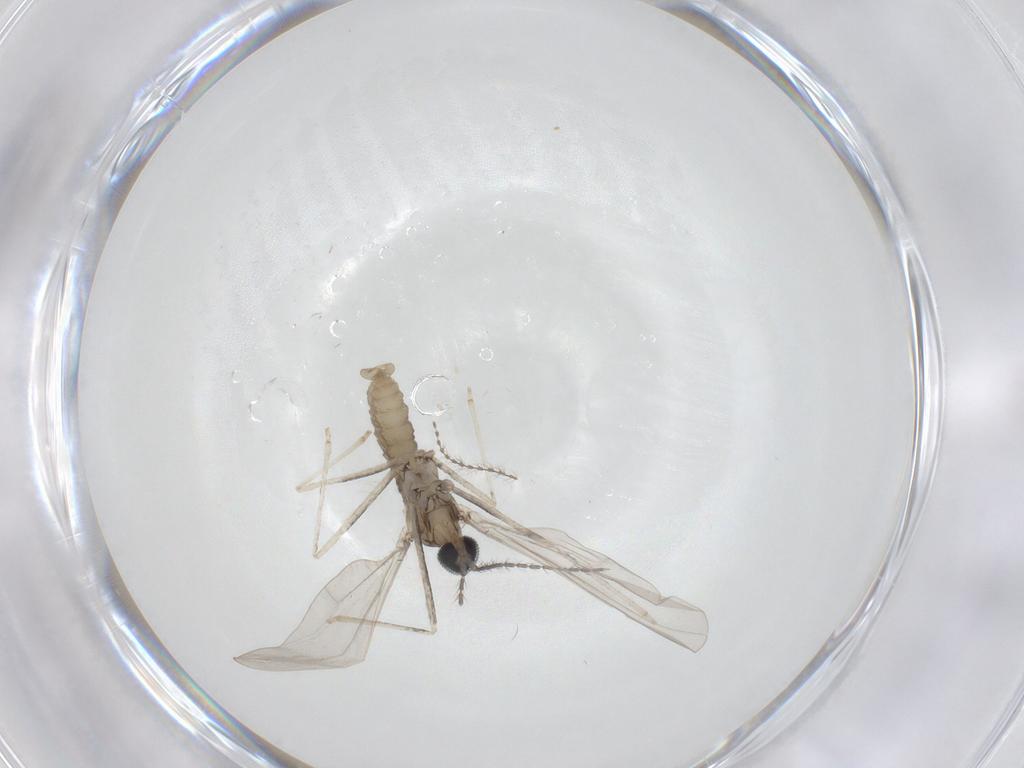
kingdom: Animalia
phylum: Arthropoda
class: Insecta
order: Diptera
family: Cecidomyiidae
